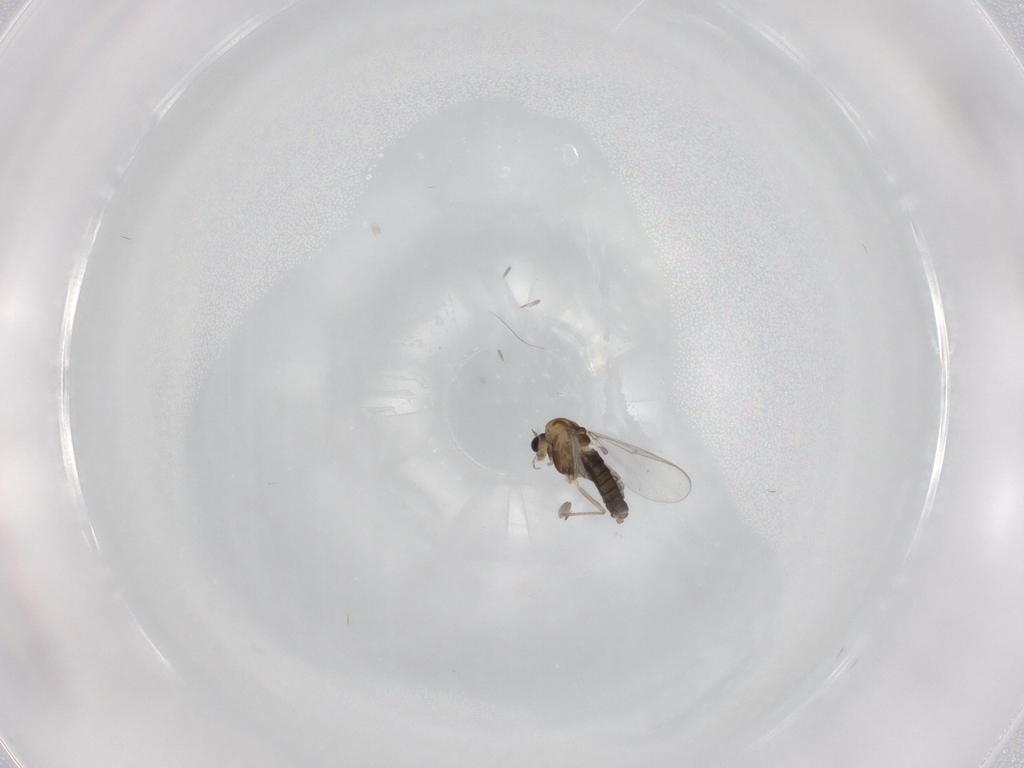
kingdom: Animalia
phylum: Arthropoda
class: Insecta
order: Diptera
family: Chironomidae
